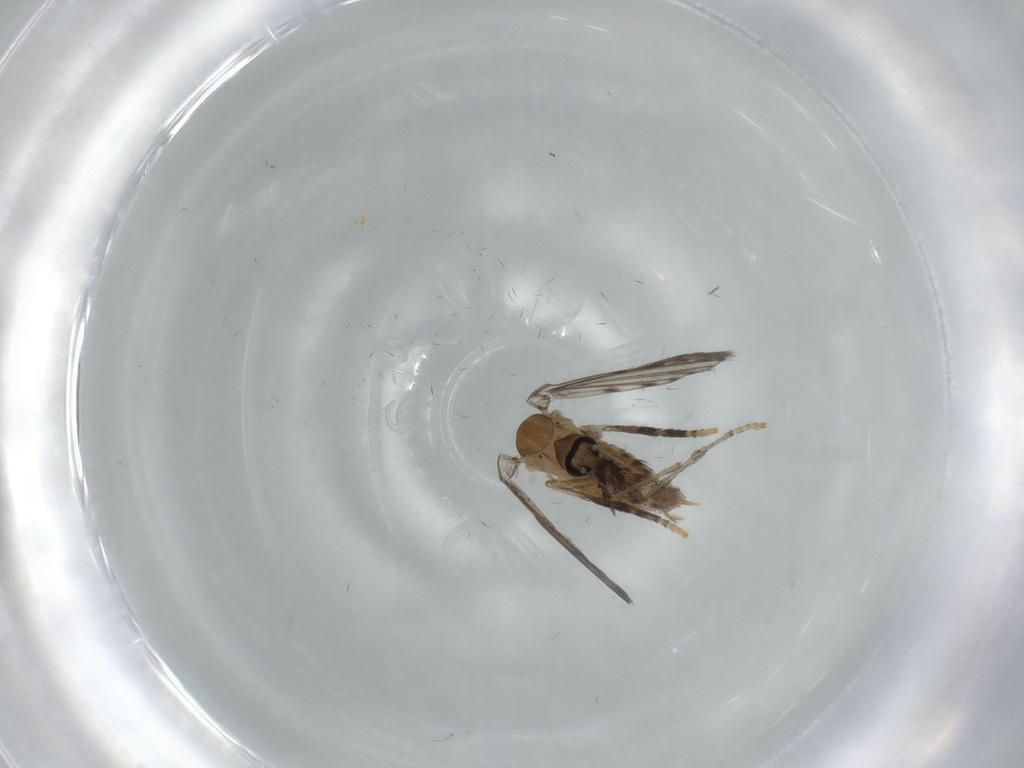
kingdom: Animalia
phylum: Arthropoda
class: Insecta
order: Diptera
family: Psychodidae
